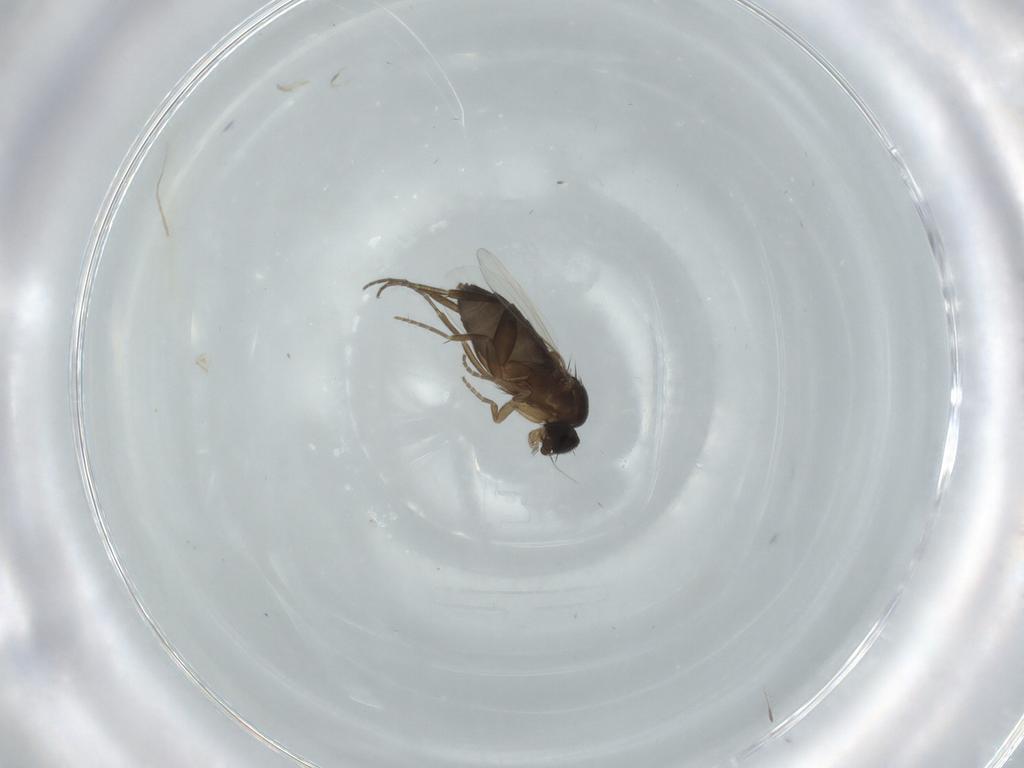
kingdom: Animalia
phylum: Arthropoda
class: Insecta
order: Diptera
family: Phoridae
